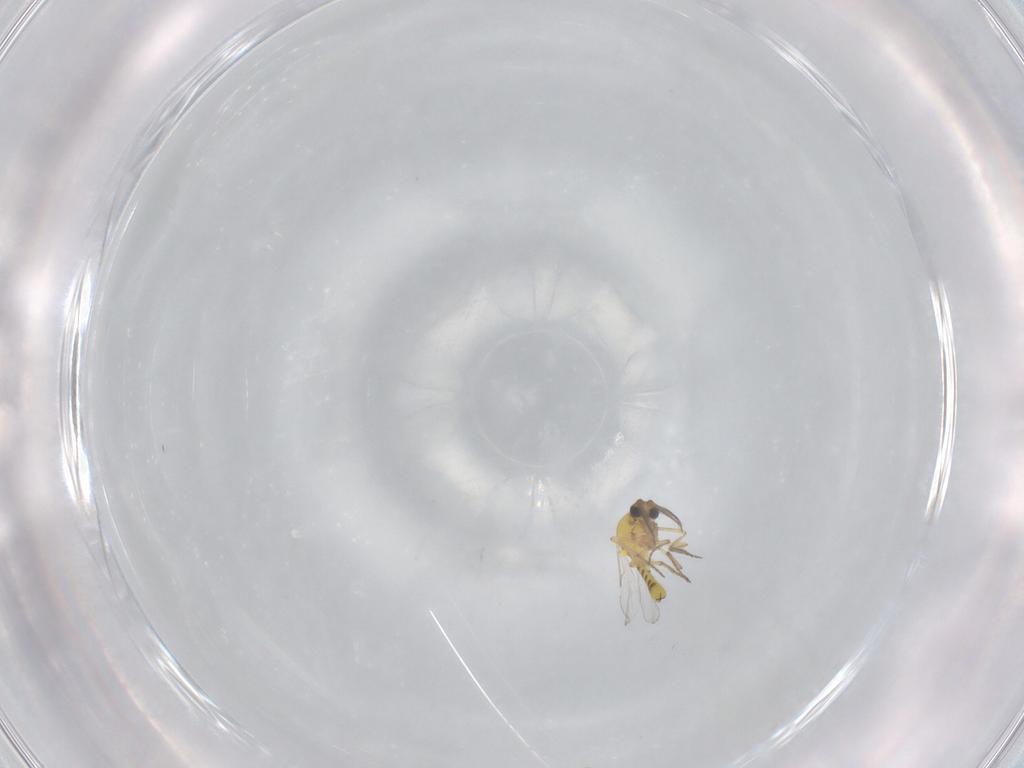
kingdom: Animalia
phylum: Arthropoda
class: Insecta
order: Diptera
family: Ceratopogonidae
